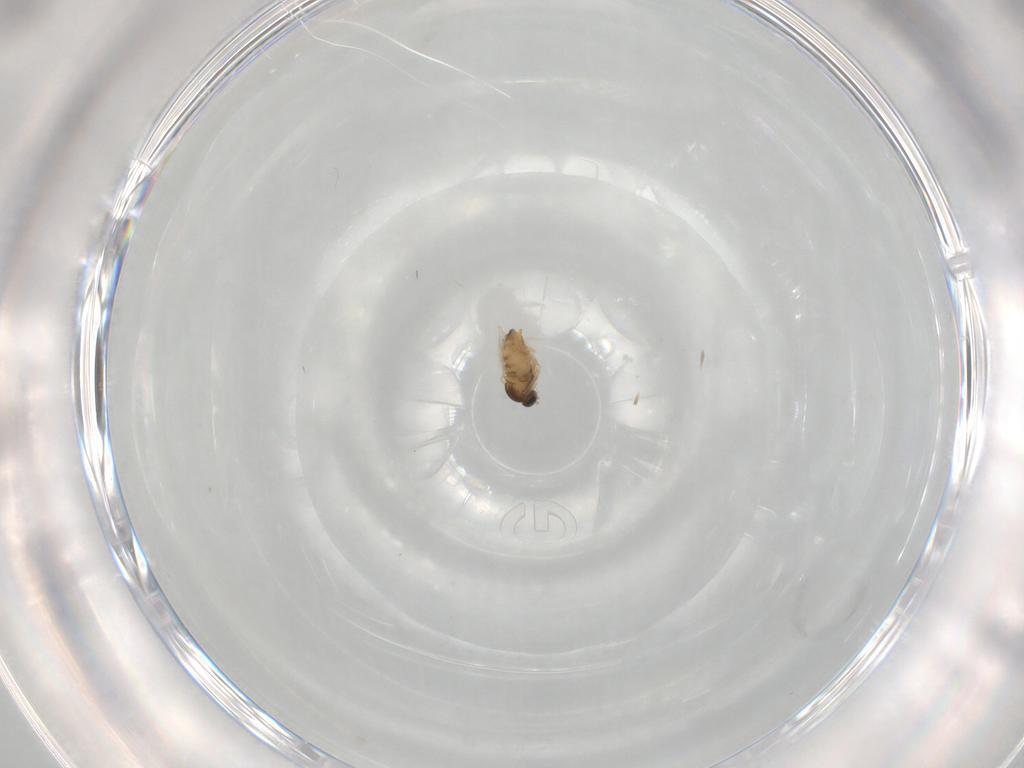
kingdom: Animalia
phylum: Arthropoda
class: Insecta
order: Diptera
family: Cecidomyiidae
